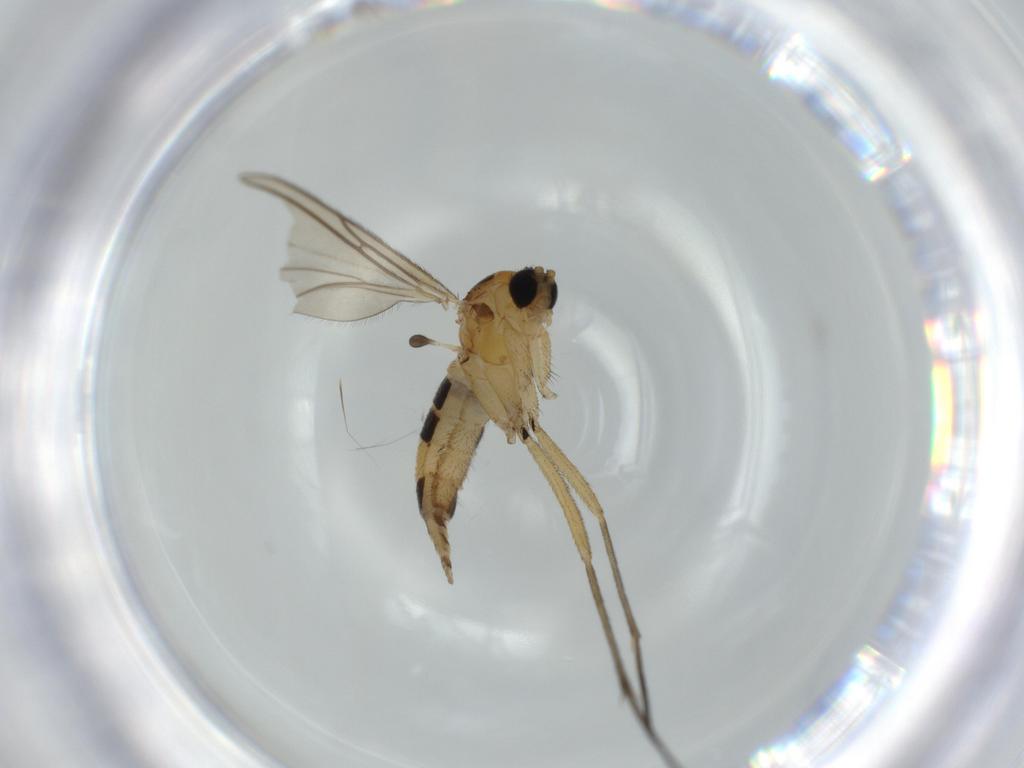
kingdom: Animalia
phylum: Arthropoda
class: Insecta
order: Diptera
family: Sciaridae
